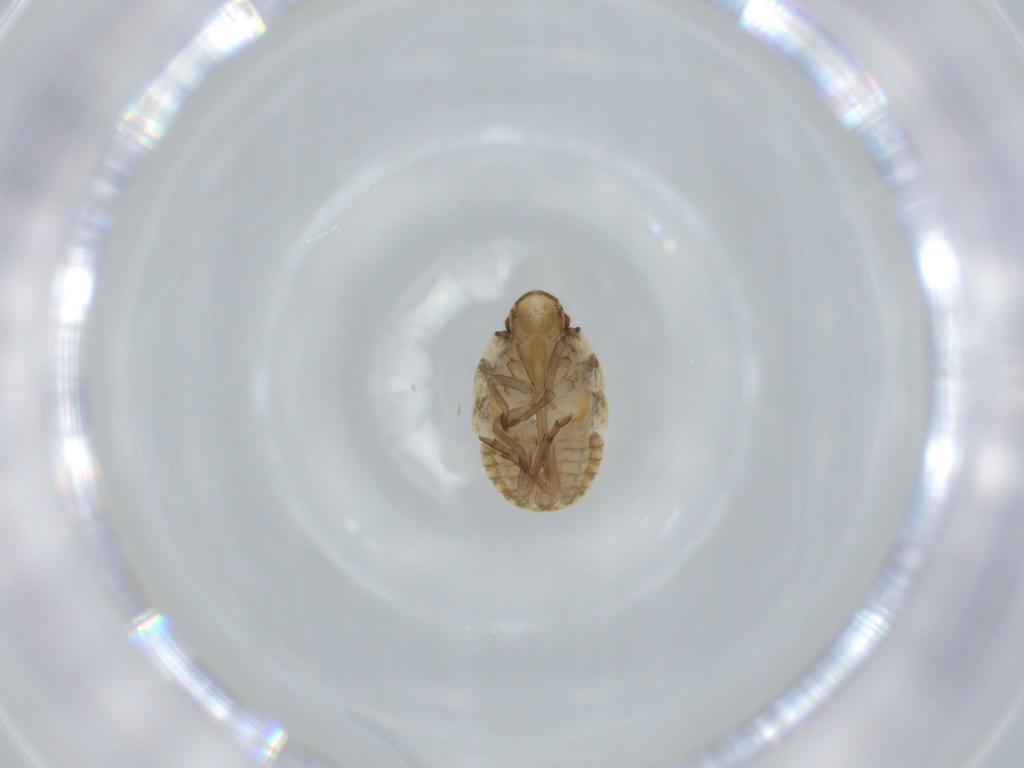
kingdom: Animalia
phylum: Arthropoda
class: Insecta
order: Hemiptera
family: Flatidae
